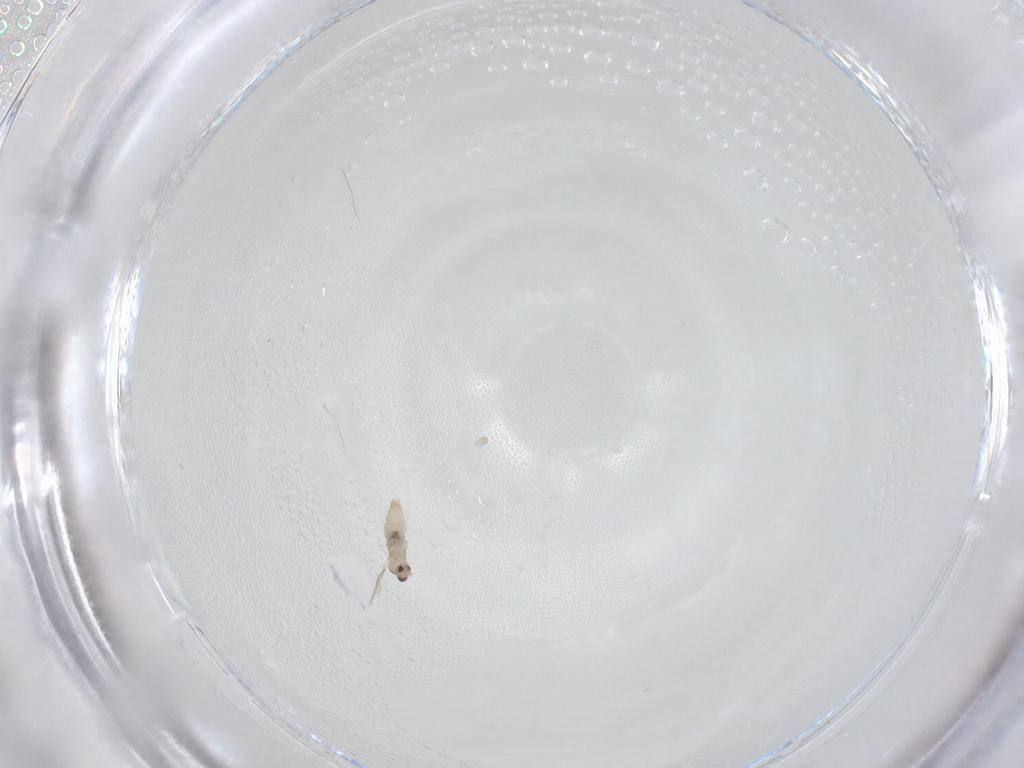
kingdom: Animalia
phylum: Arthropoda
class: Insecta
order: Diptera
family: Cecidomyiidae
